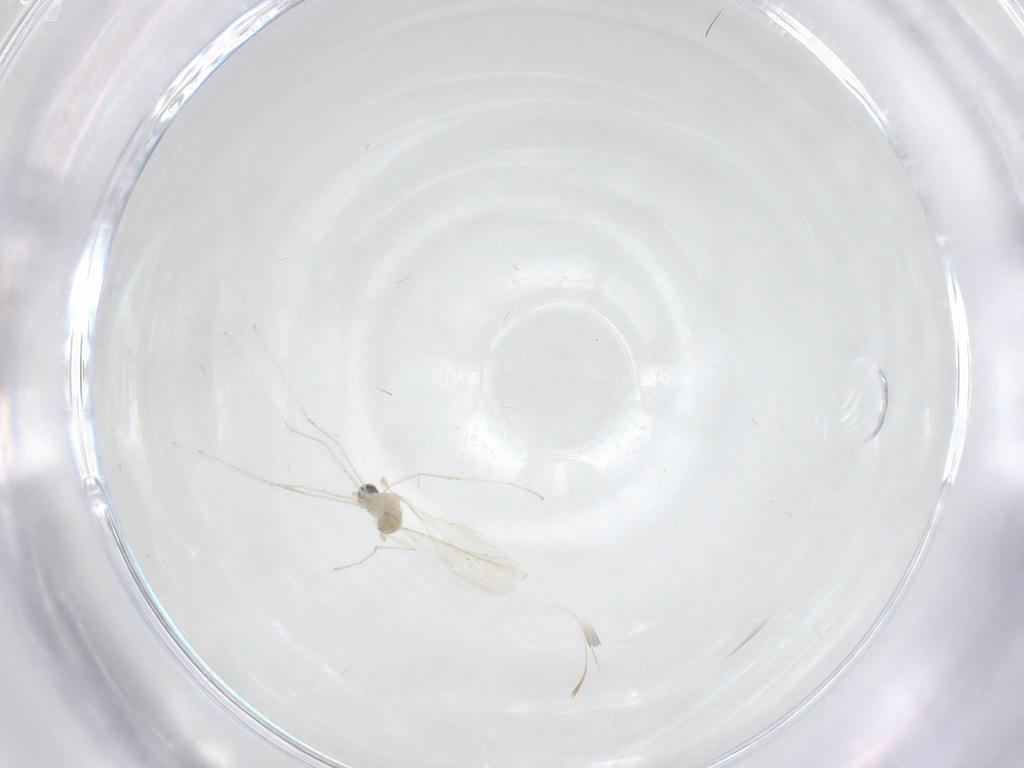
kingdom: Animalia
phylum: Arthropoda
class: Insecta
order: Diptera
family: Cecidomyiidae
